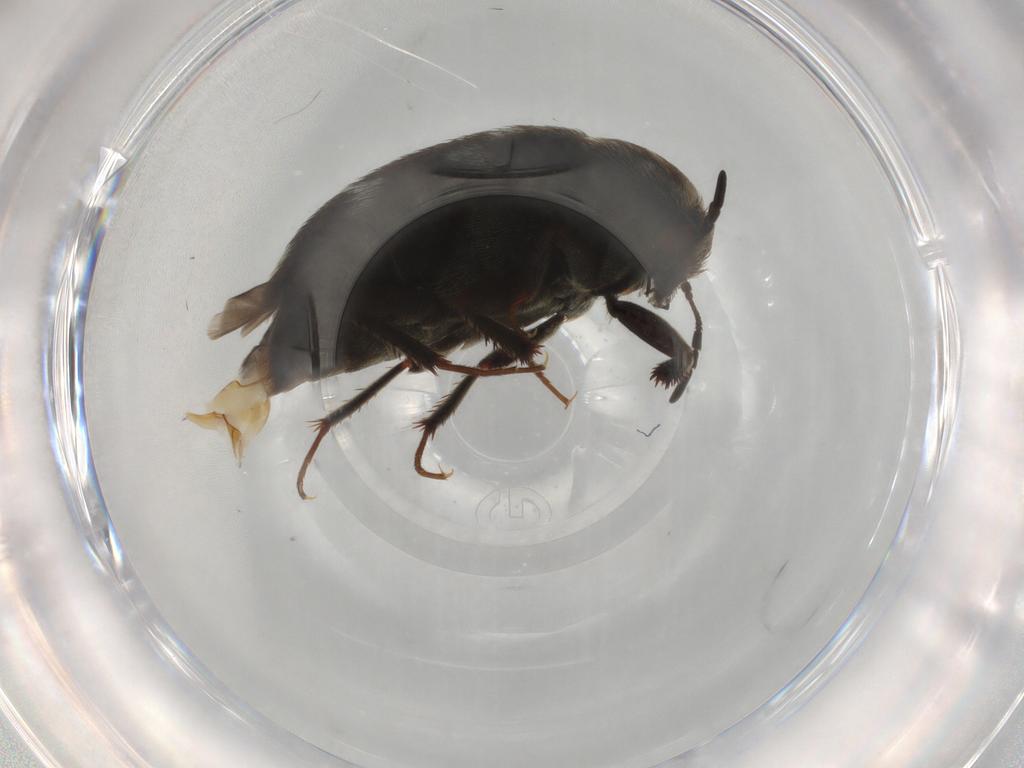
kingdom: Animalia
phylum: Arthropoda
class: Insecta
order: Coleoptera
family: Dermestidae
